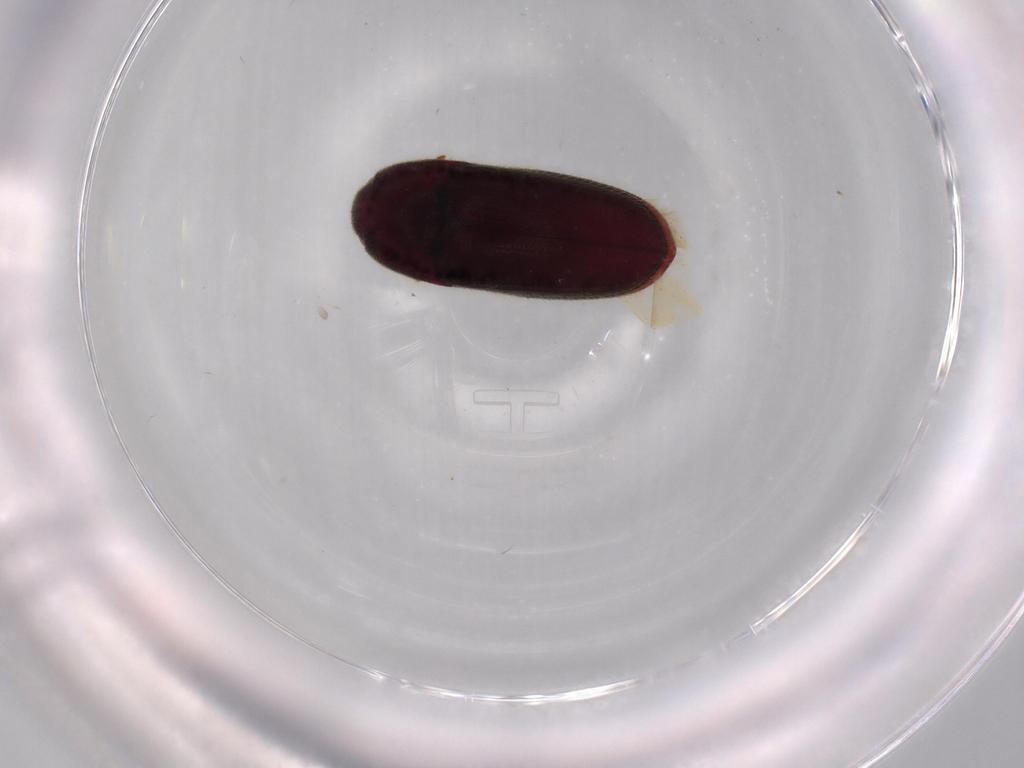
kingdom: Animalia
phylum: Arthropoda
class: Insecta
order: Coleoptera
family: Throscidae
